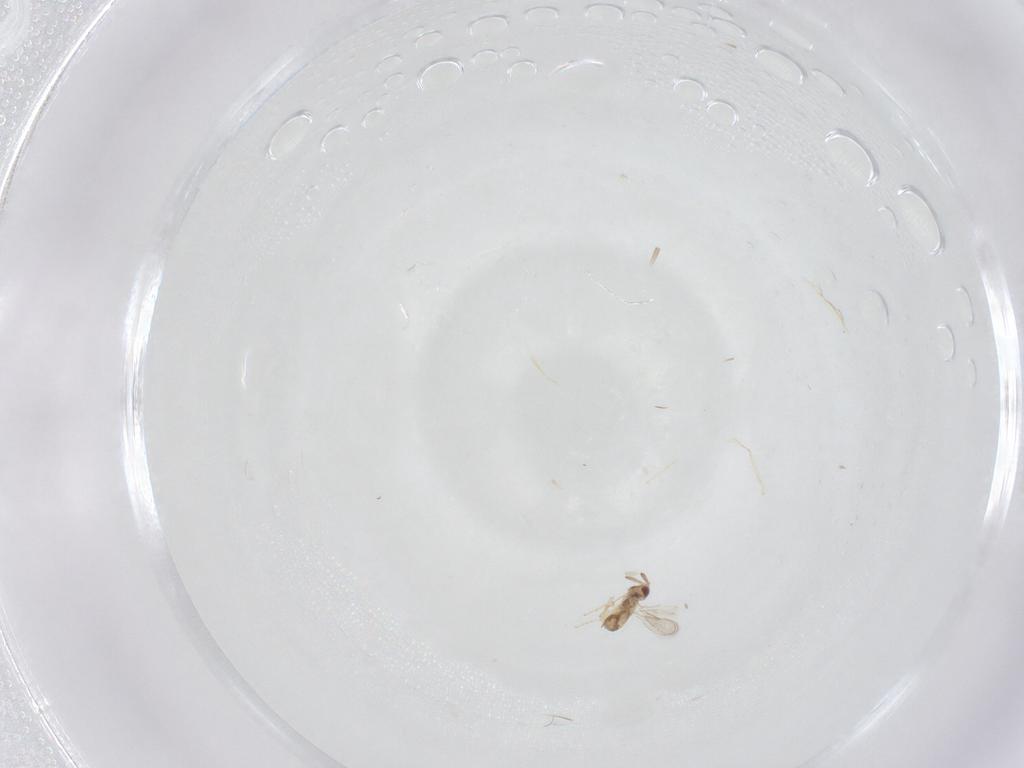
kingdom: Animalia
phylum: Arthropoda
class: Insecta
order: Hymenoptera
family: Aphelinidae
